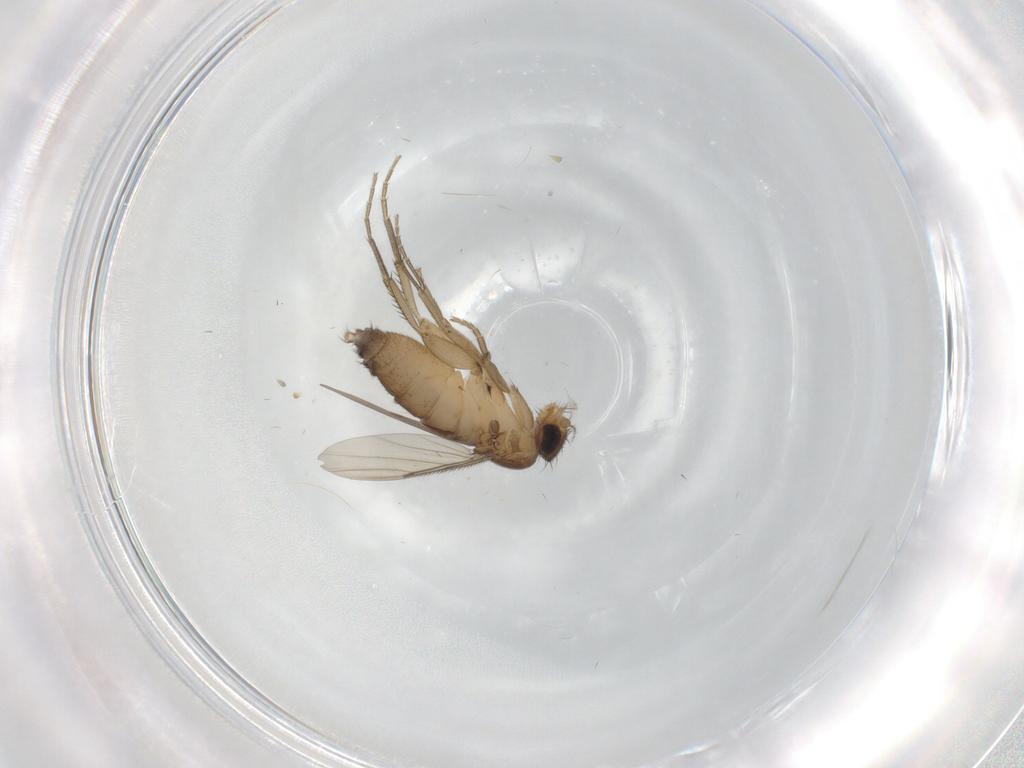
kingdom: Animalia
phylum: Arthropoda
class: Insecta
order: Diptera
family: Phoridae
